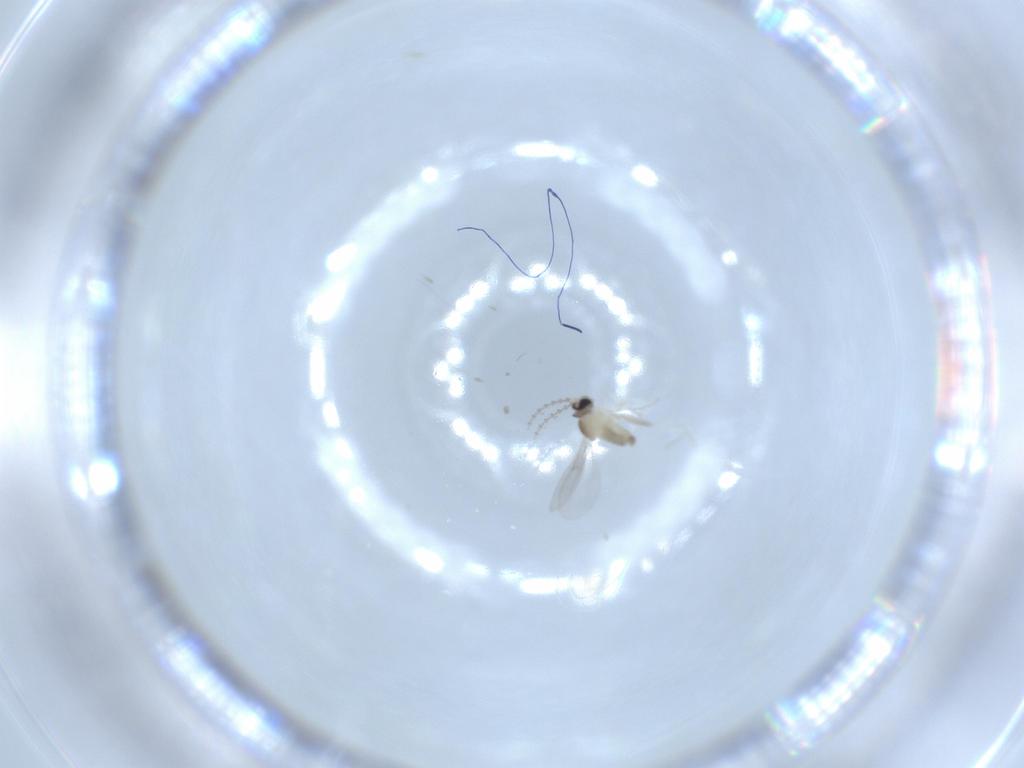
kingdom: Animalia
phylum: Arthropoda
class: Insecta
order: Diptera
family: Cecidomyiidae
